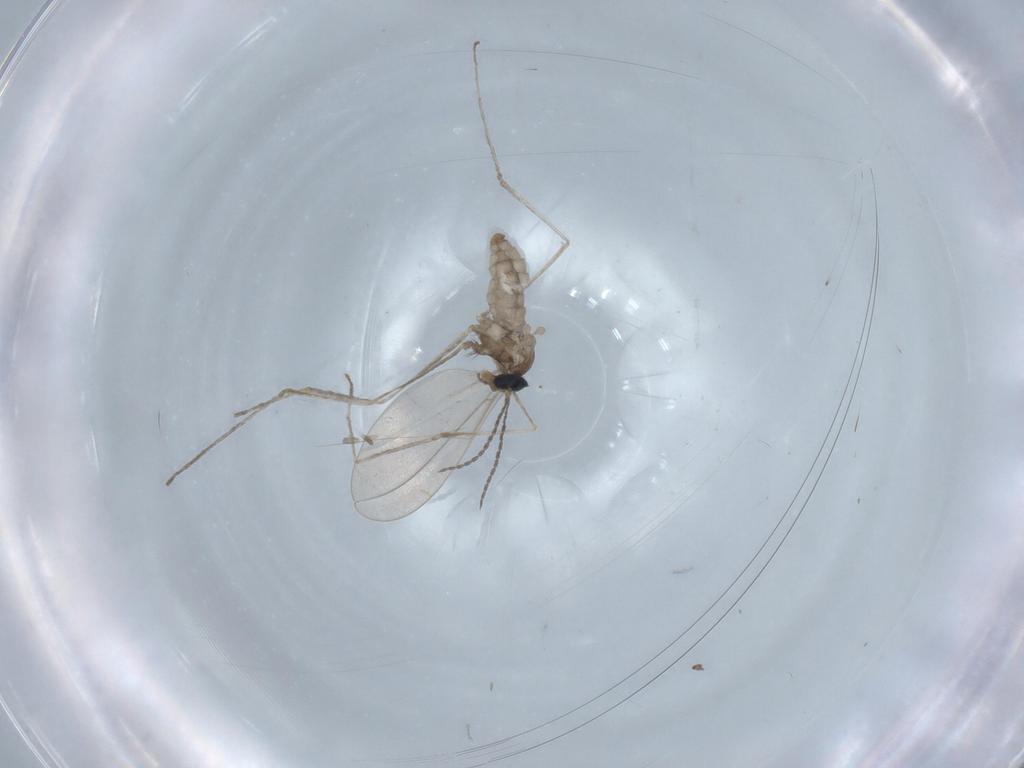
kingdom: Animalia
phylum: Arthropoda
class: Insecta
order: Diptera
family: Cecidomyiidae
